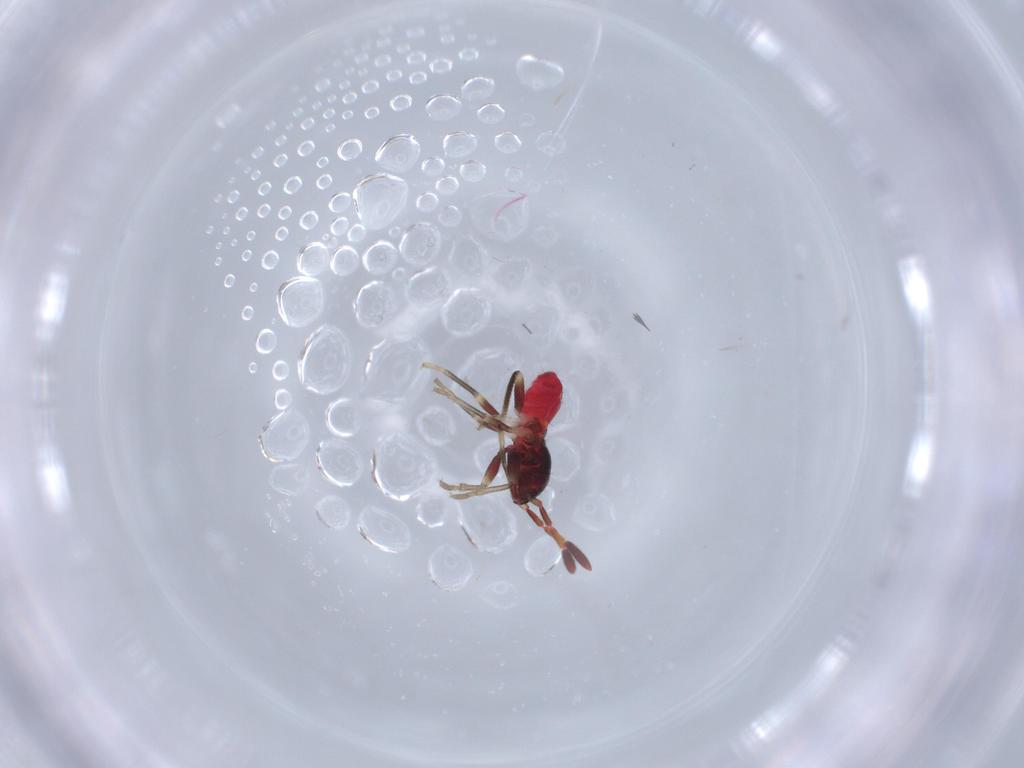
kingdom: Animalia
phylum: Arthropoda
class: Insecta
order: Hemiptera
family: Rhyparochromidae
